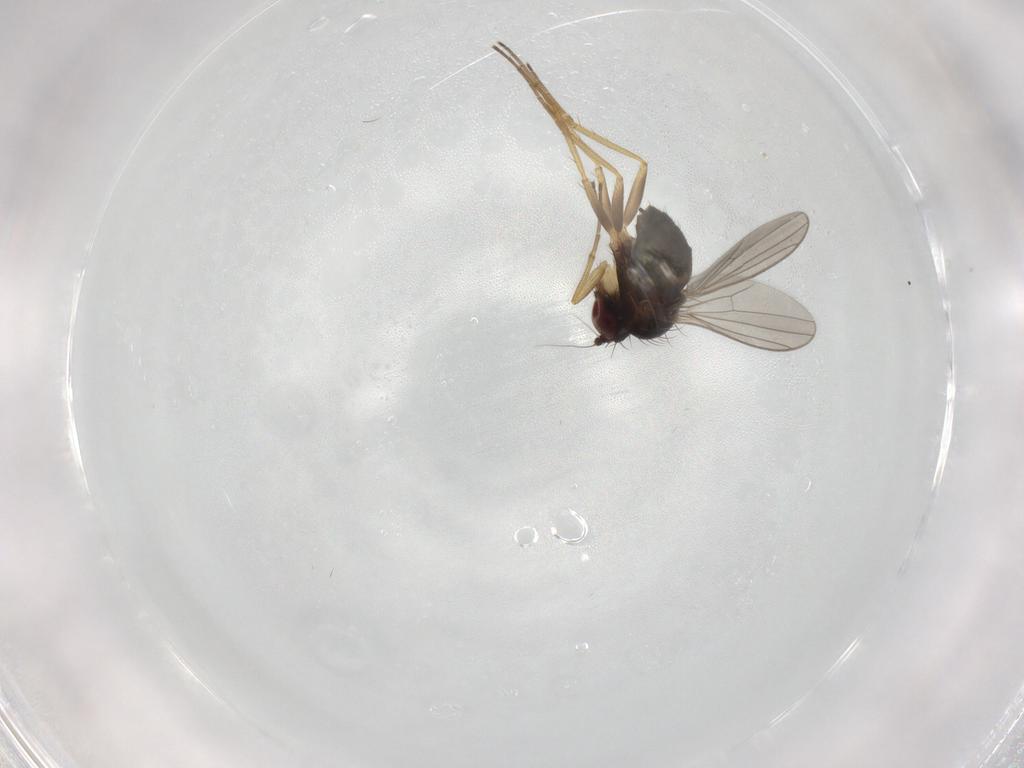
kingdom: Animalia
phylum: Arthropoda
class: Insecta
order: Diptera
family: Dolichopodidae
